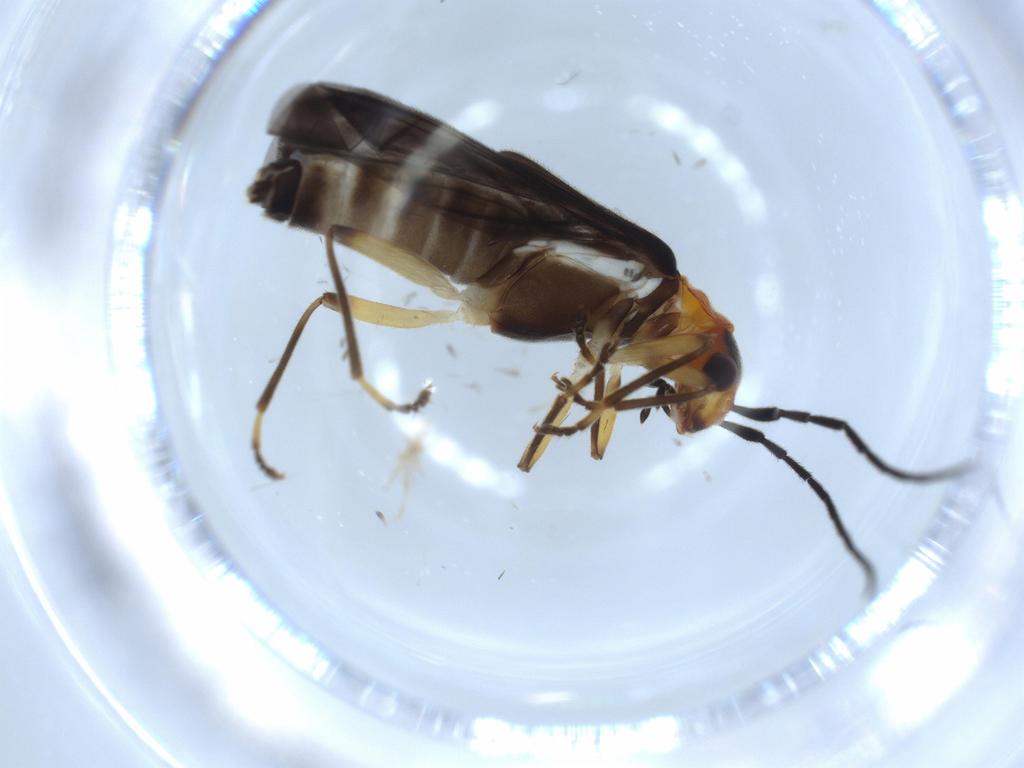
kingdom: Animalia
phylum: Arthropoda
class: Insecta
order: Coleoptera
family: Cantharidae
